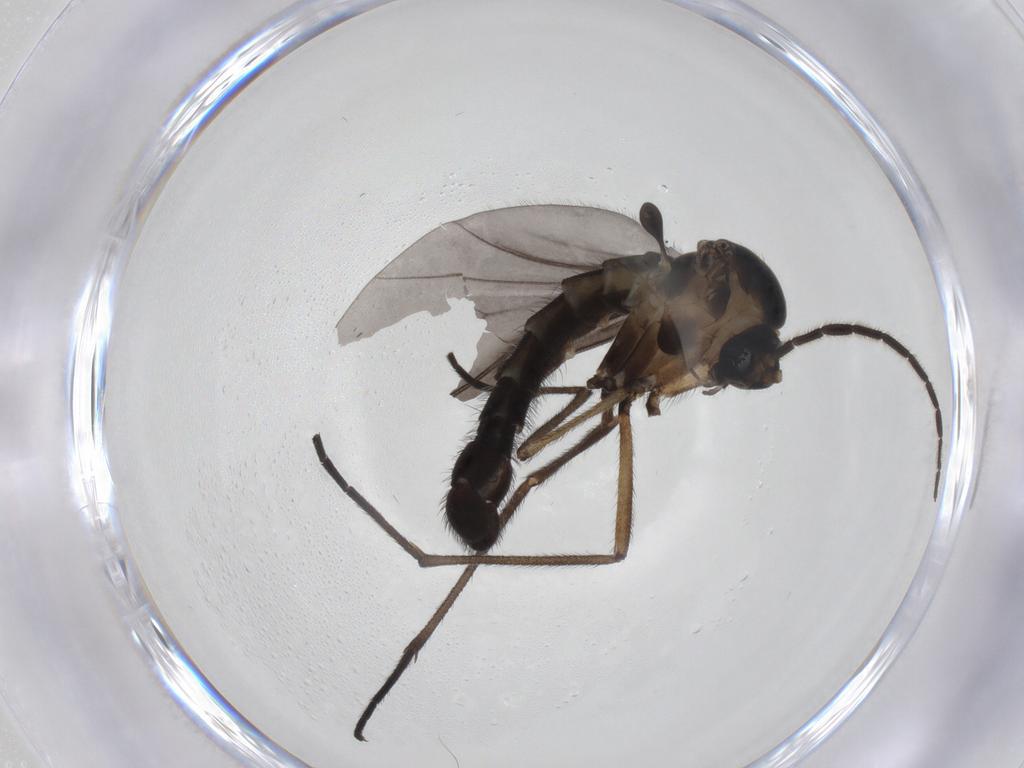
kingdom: Animalia
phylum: Arthropoda
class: Insecta
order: Diptera
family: Sciaridae
